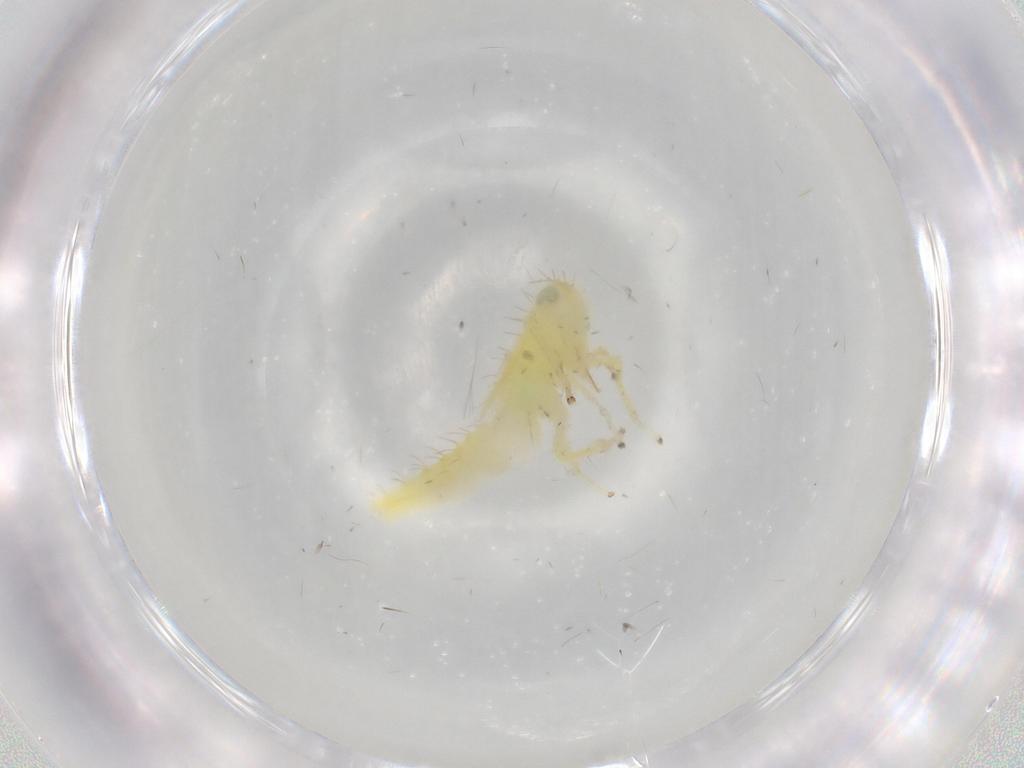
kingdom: Animalia
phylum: Arthropoda
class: Insecta
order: Hemiptera
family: Cicadellidae
